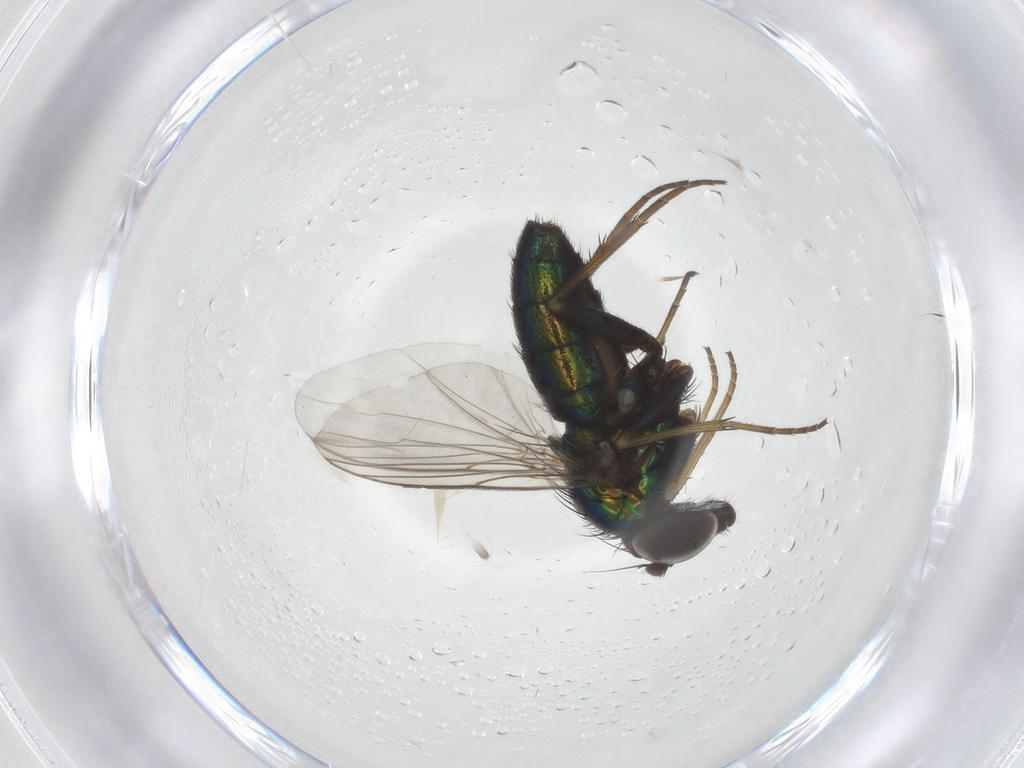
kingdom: Animalia
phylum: Arthropoda
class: Insecta
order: Diptera
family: Dolichopodidae
